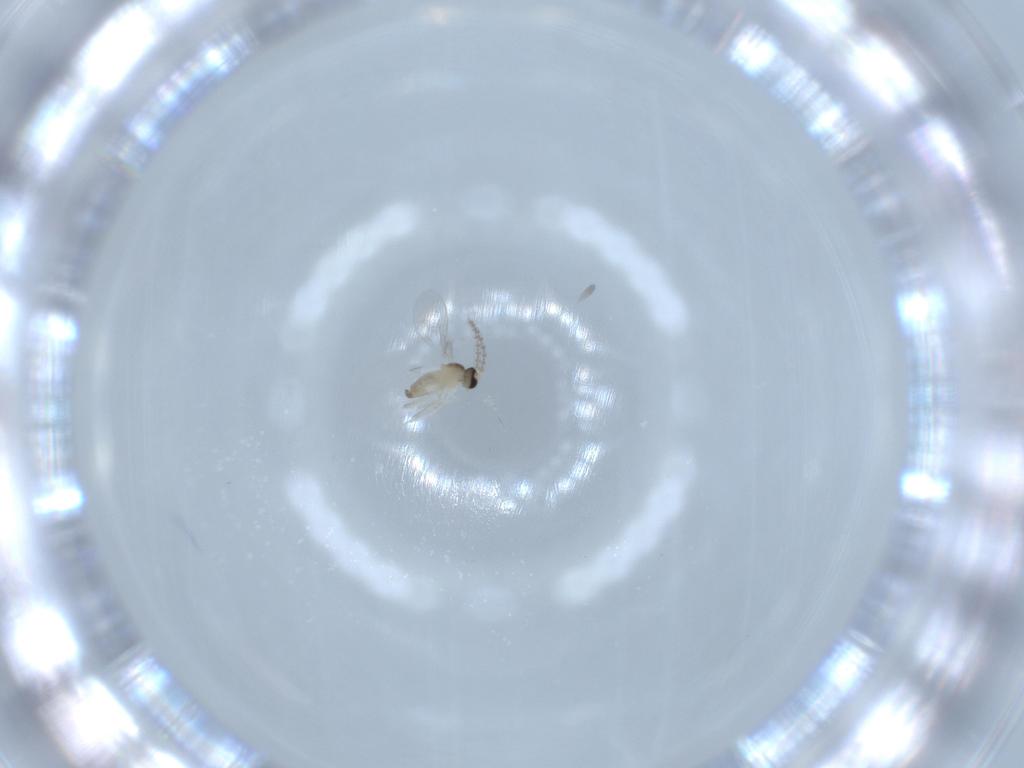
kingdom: Animalia
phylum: Arthropoda
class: Insecta
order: Diptera
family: Cecidomyiidae
